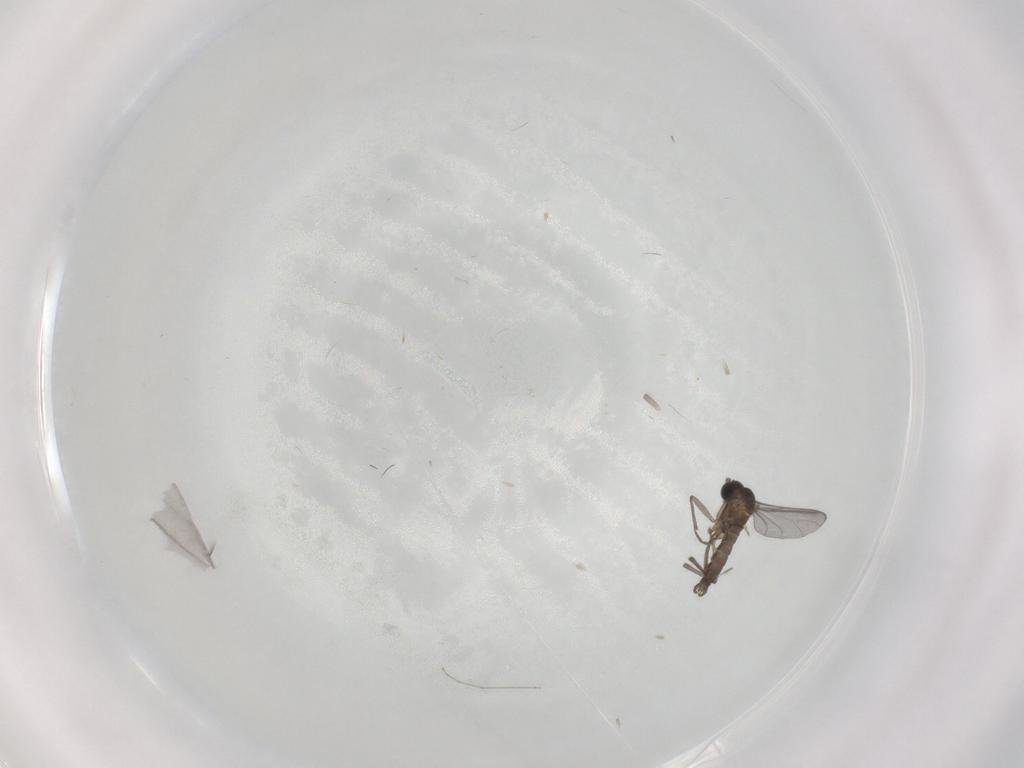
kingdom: Animalia
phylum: Arthropoda
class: Insecta
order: Diptera
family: Sciaridae
